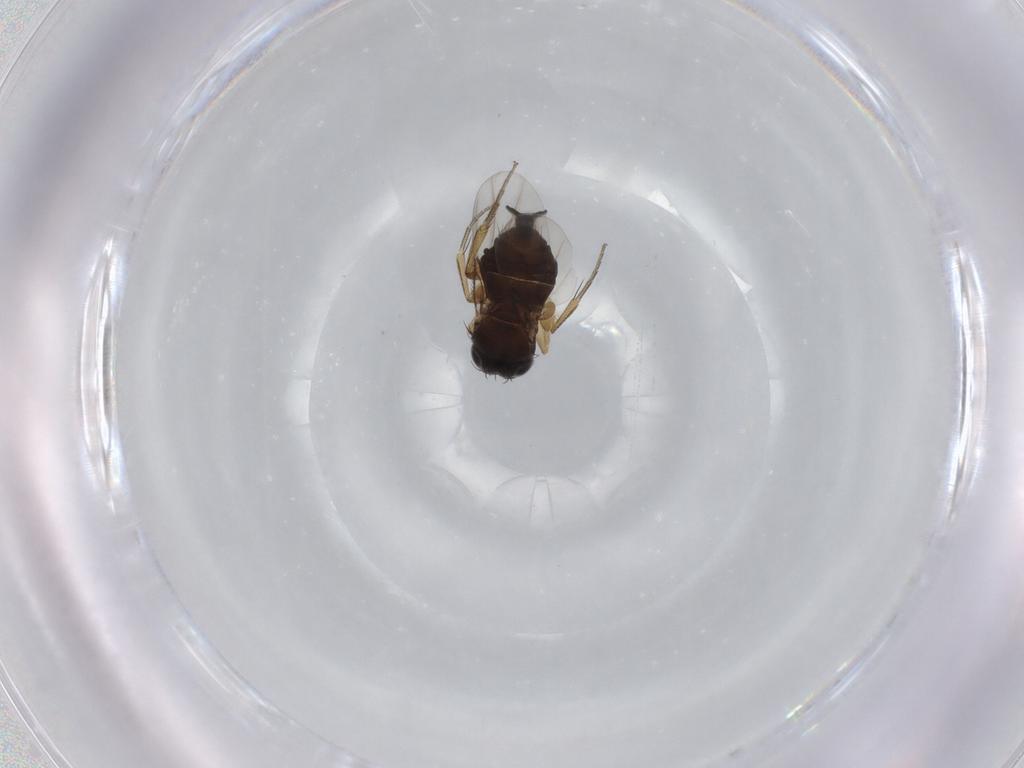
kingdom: Animalia
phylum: Arthropoda
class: Insecta
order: Diptera
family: Phoridae
